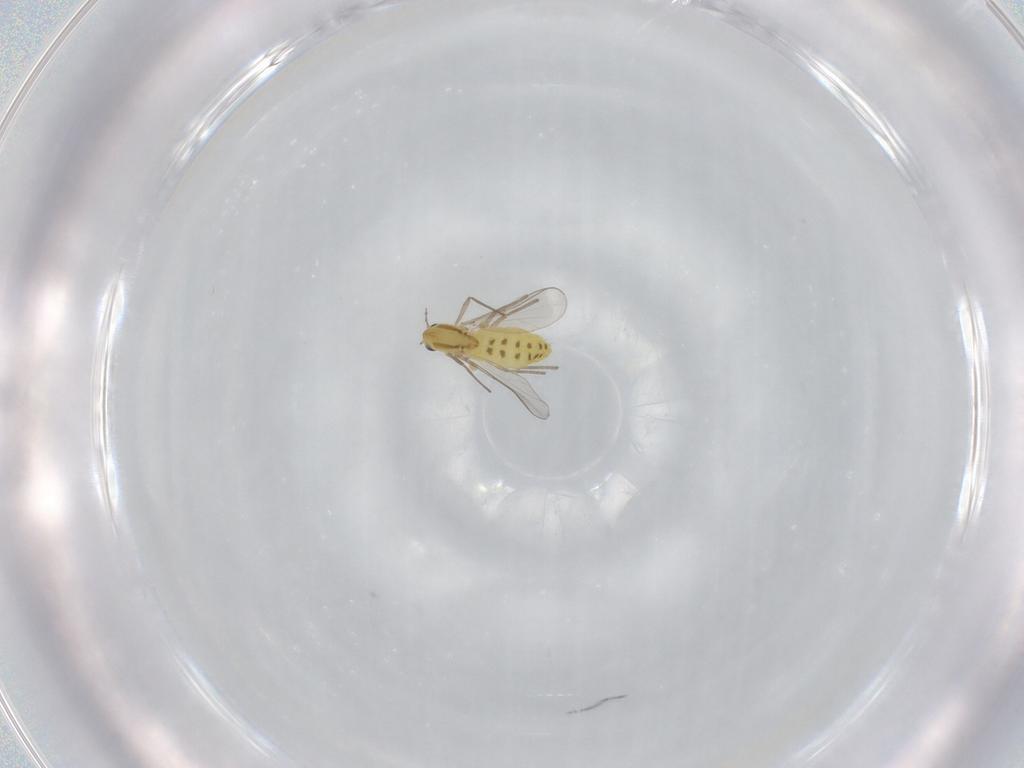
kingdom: Animalia
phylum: Arthropoda
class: Insecta
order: Diptera
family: Chironomidae
